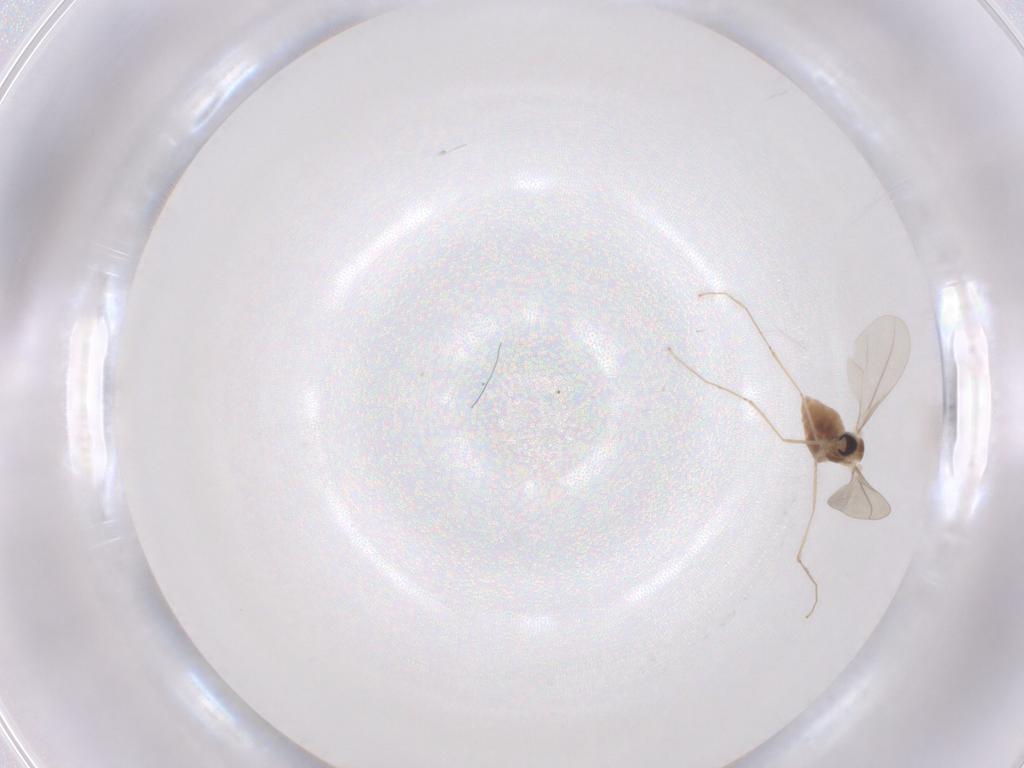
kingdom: Animalia
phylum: Arthropoda
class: Insecta
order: Diptera
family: Cecidomyiidae
